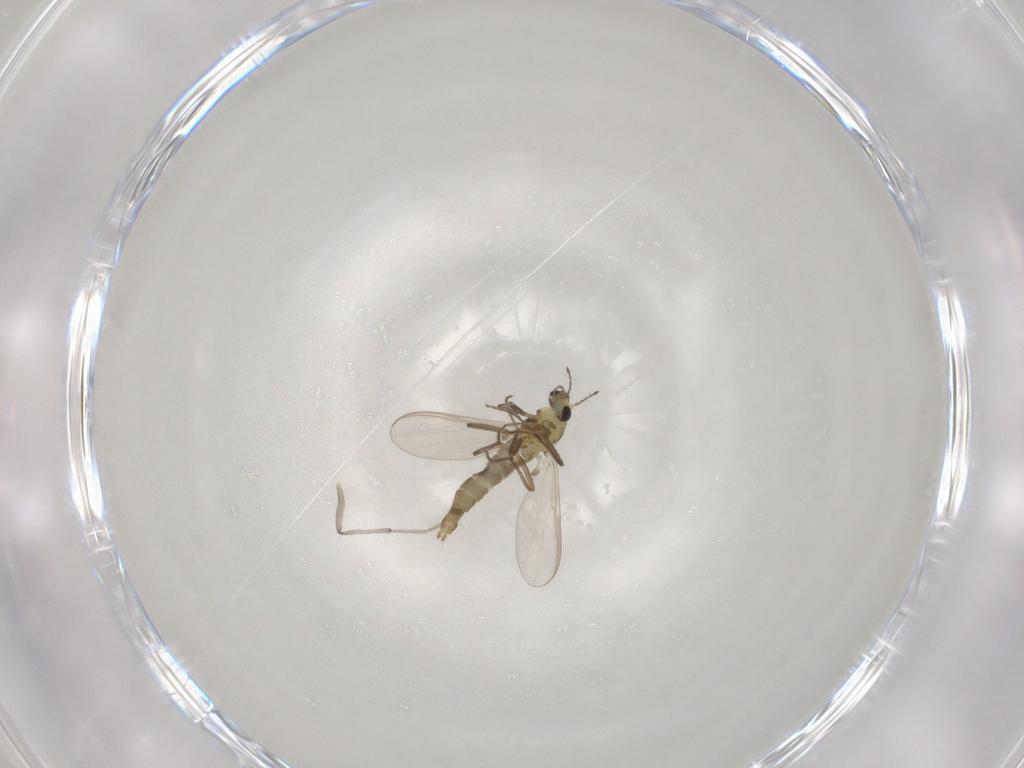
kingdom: Animalia
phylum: Arthropoda
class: Insecta
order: Diptera
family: Chironomidae
